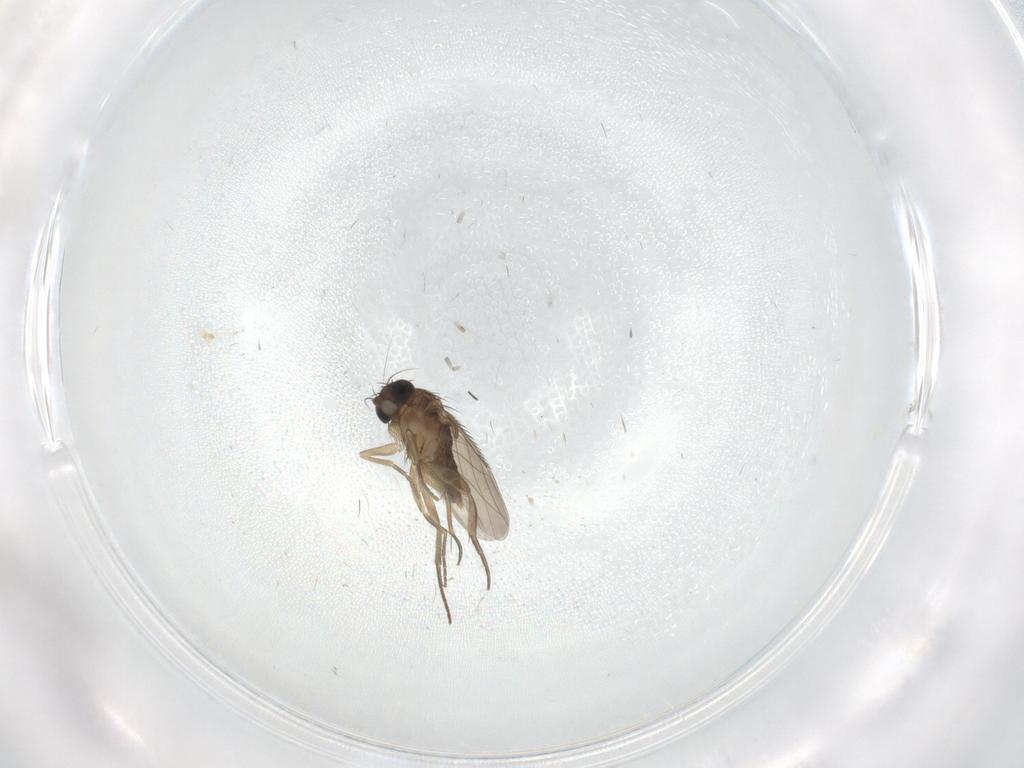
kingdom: Animalia
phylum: Arthropoda
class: Insecta
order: Diptera
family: Phoridae
